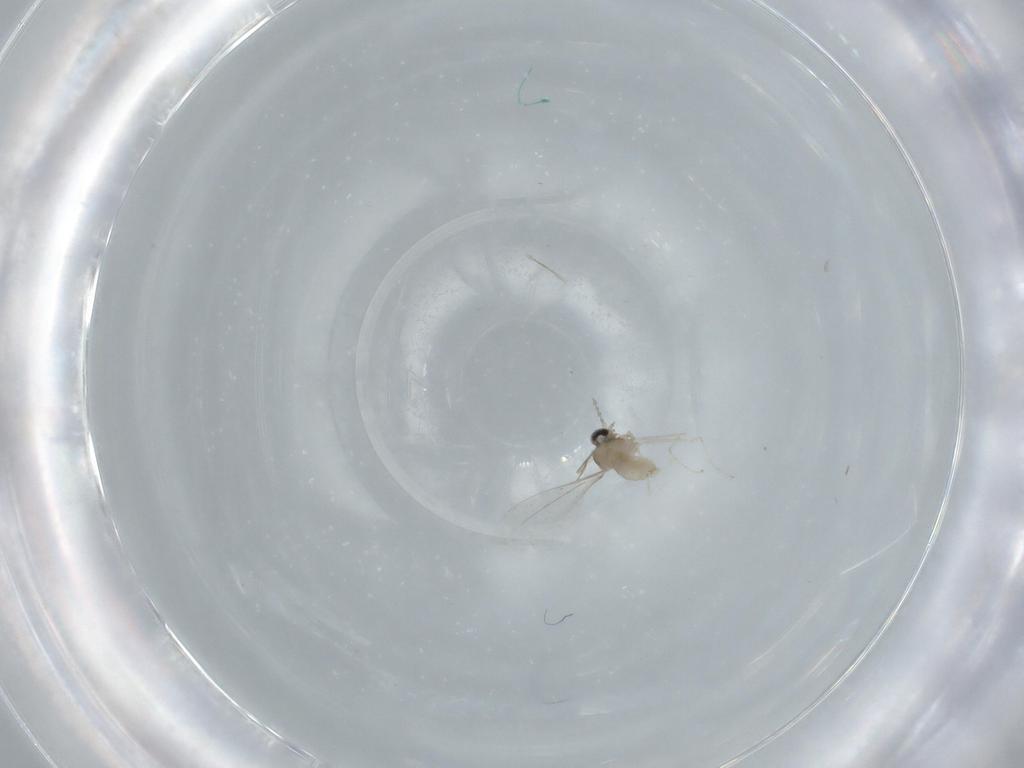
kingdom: Animalia
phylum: Arthropoda
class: Insecta
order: Diptera
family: Cecidomyiidae
